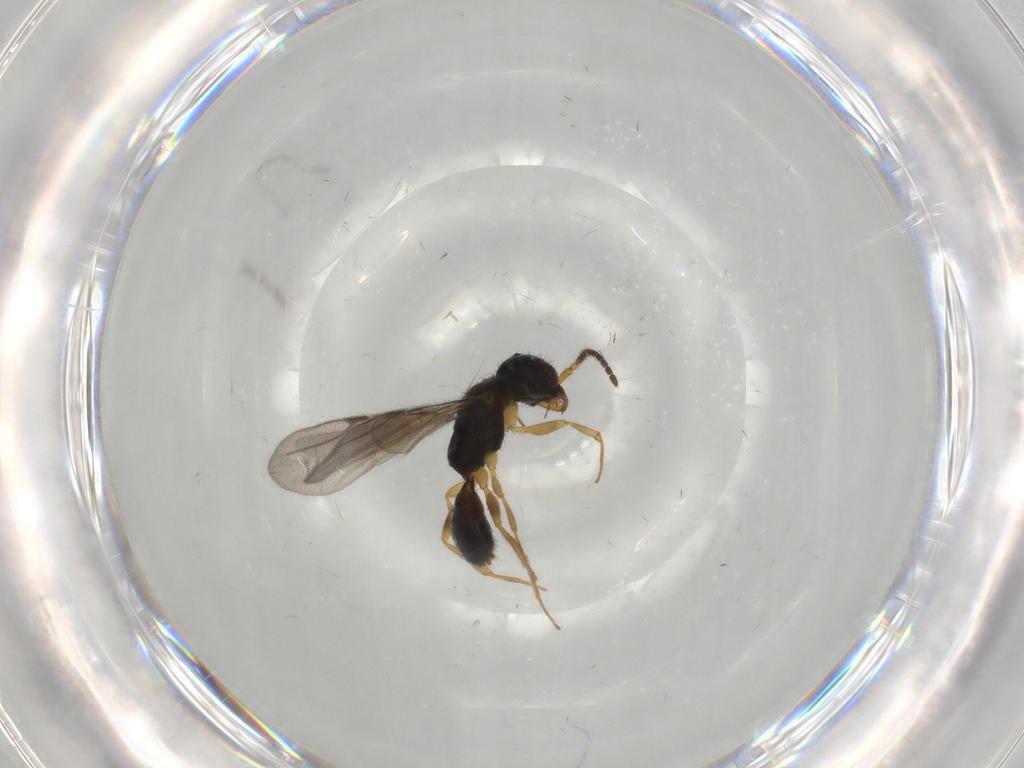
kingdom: Animalia
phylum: Arthropoda
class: Insecta
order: Hymenoptera
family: Bethylidae
